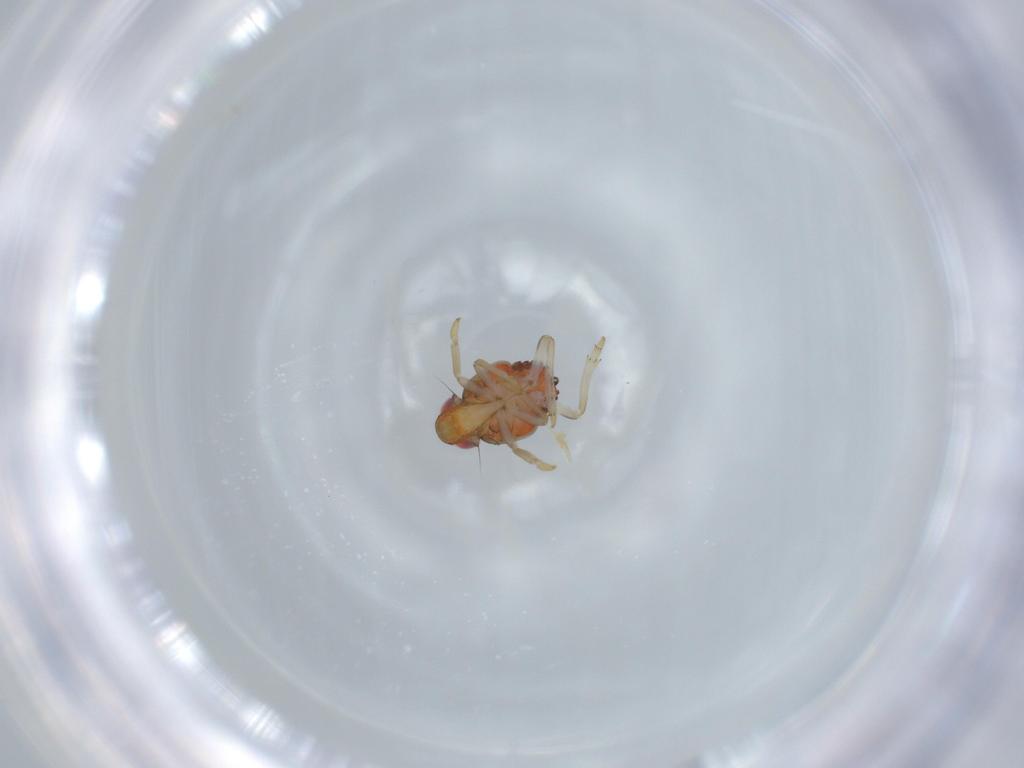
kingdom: Animalia
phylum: Arthropoda
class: Insecta
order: Hemiptera
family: Issidae
